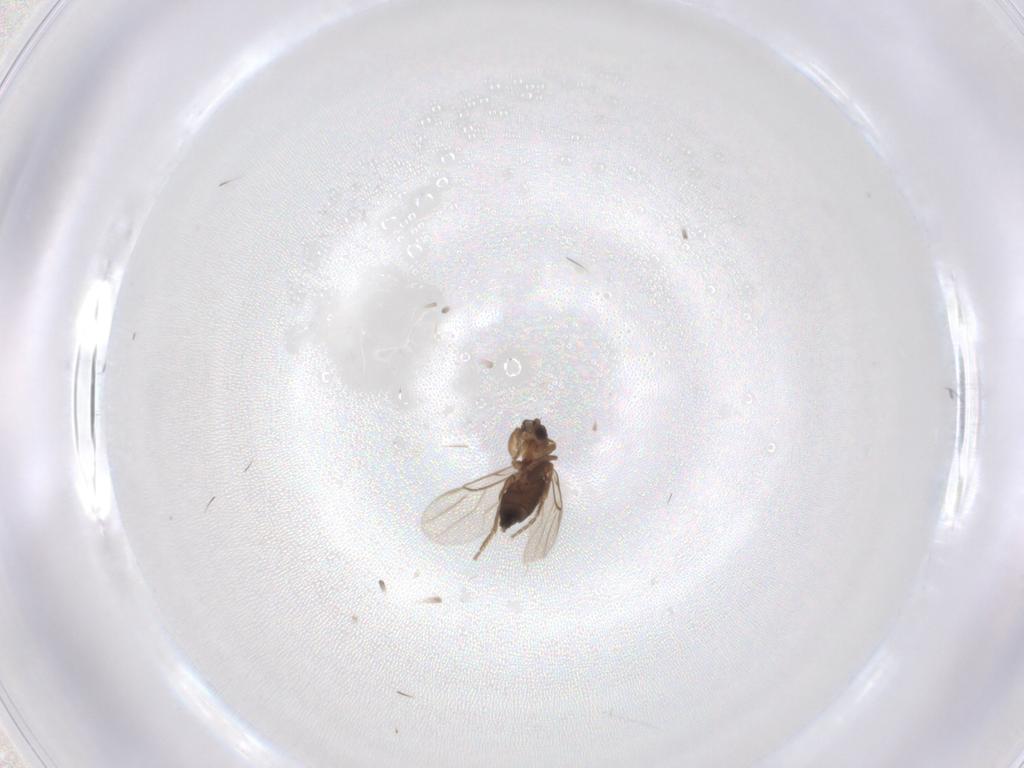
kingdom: Animalia
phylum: Arthropoda
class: Insecta
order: Diptera
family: Phoridae
